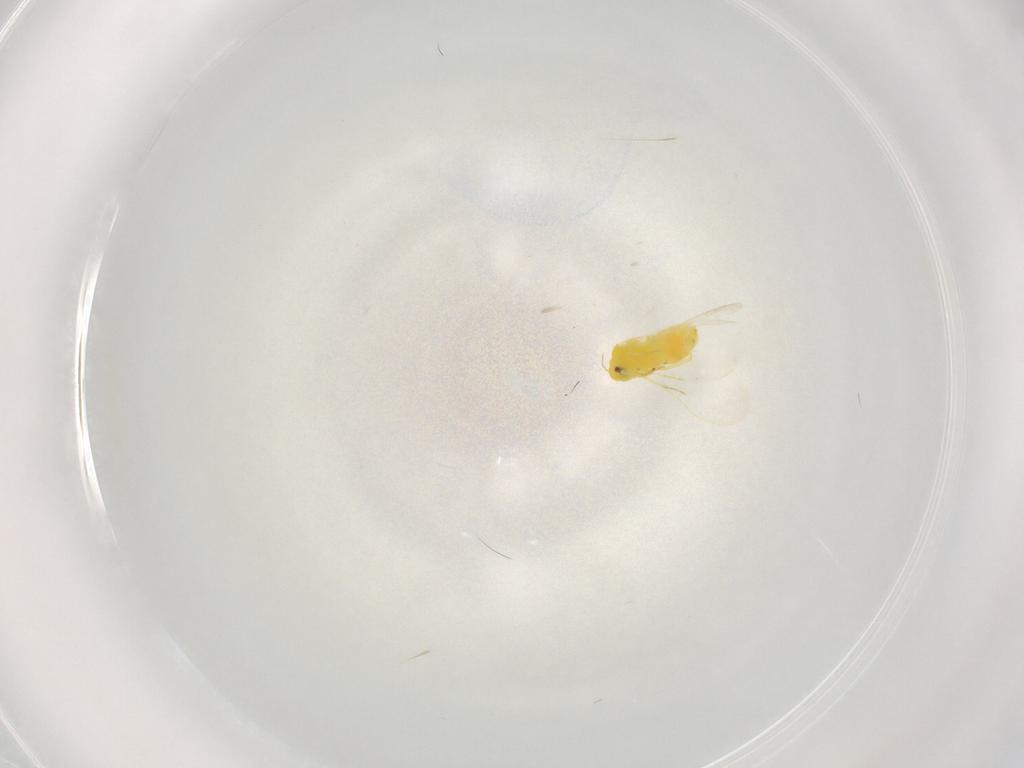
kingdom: Animalia
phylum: Arthropoda
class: Insecta
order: Hemiptera
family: Aleyrodidae
